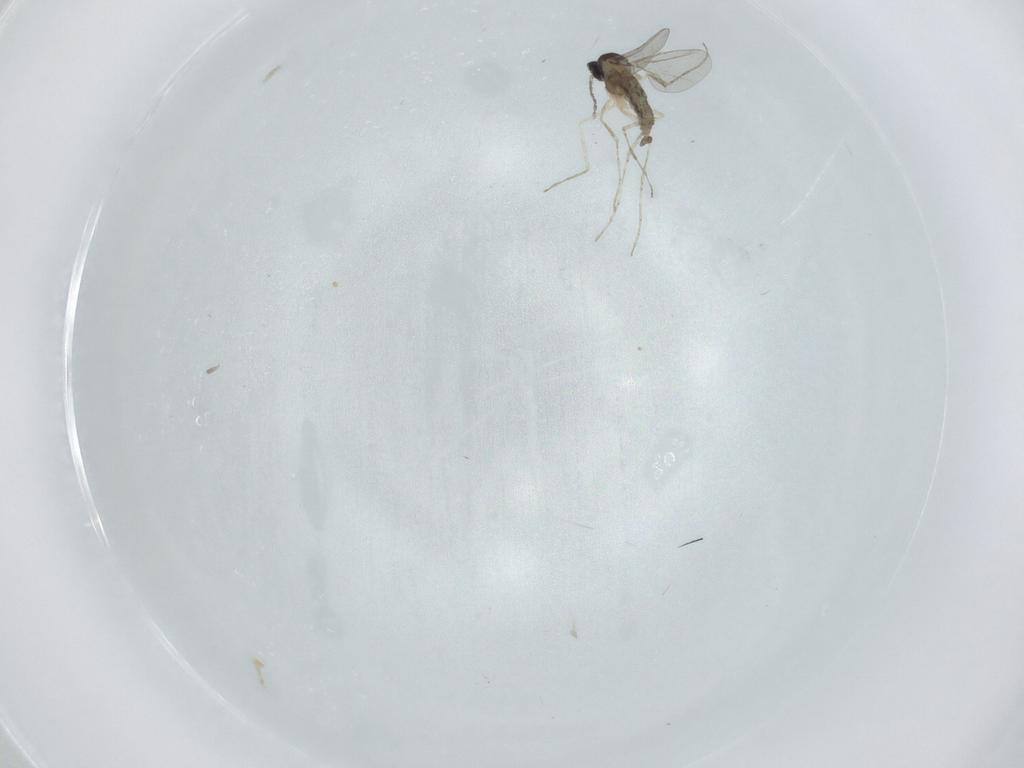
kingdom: Animalia
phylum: Arthropoda
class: Insecta
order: Diptera
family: Cecidomyiidae
